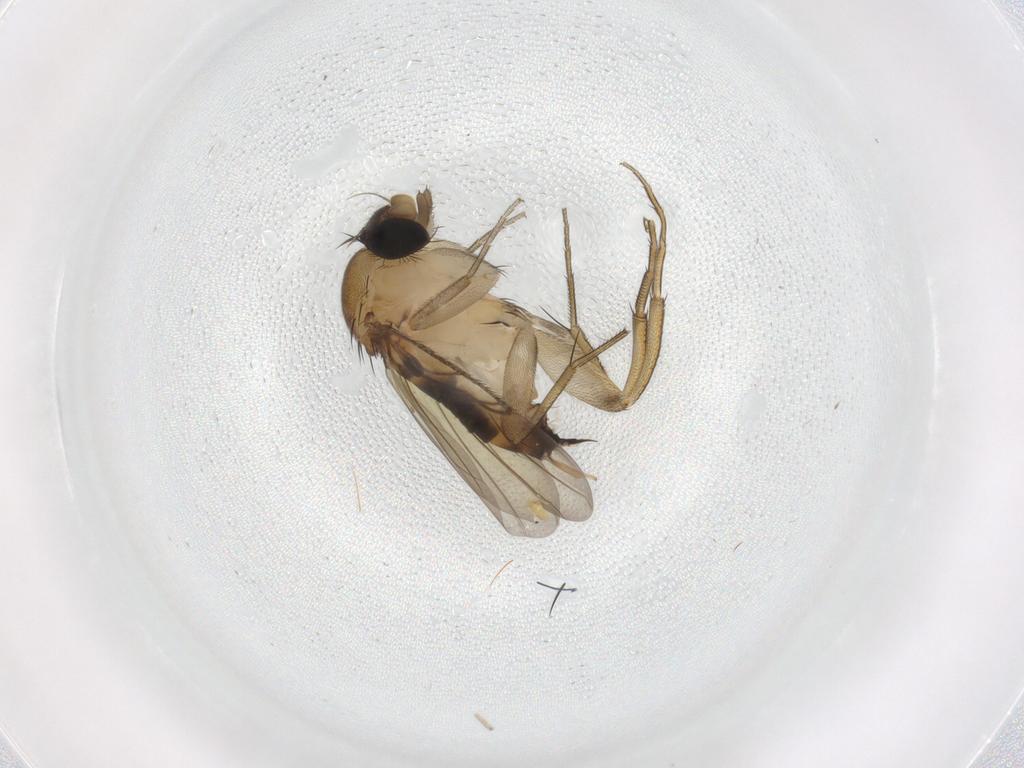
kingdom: Animalia
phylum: Arthropoda
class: Insecta
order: Diptera
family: Phoridae
